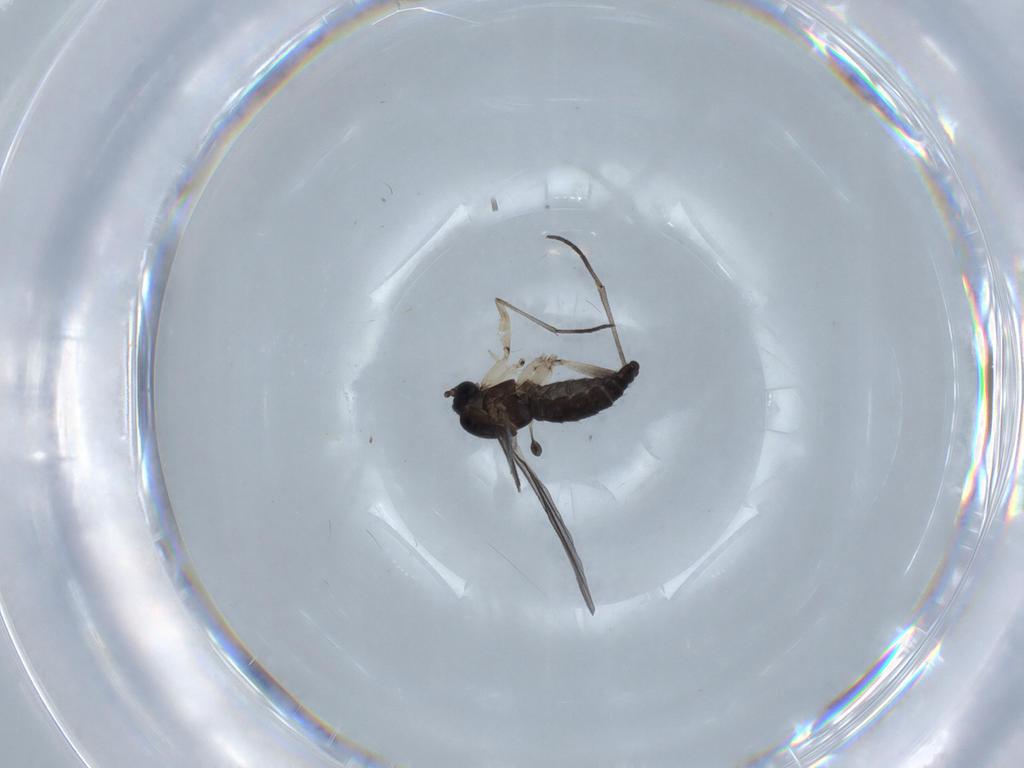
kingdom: Animalia
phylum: Arthropoda
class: Insecta
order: Diptera
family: Sciaridae
